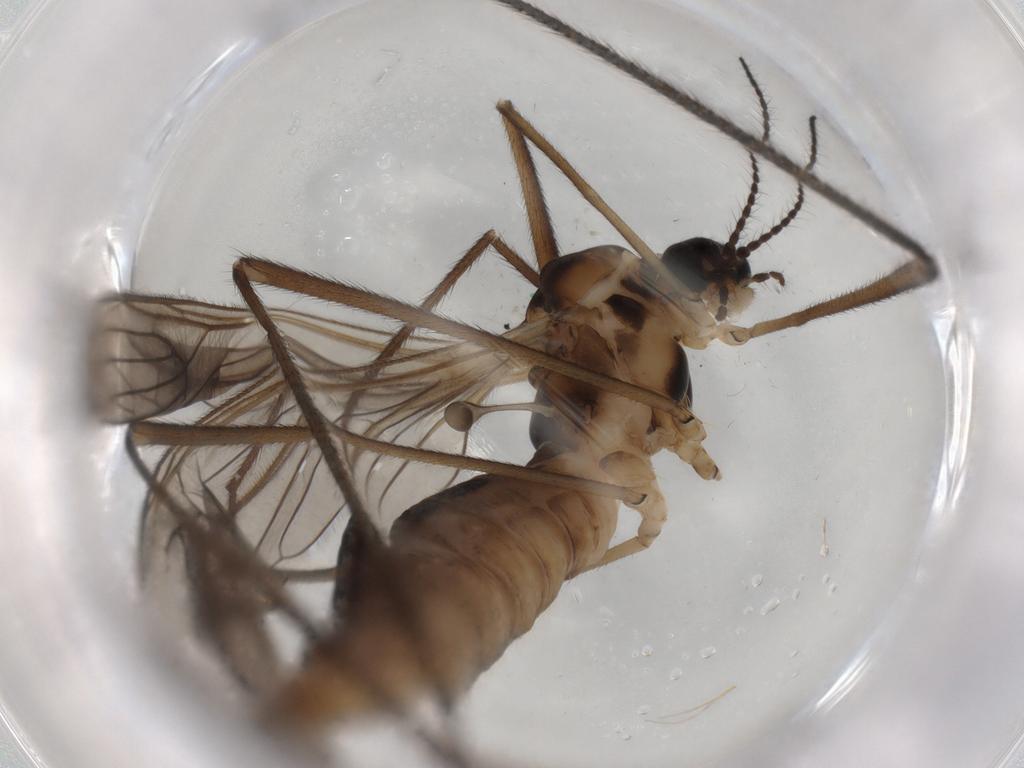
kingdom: Animalia
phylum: Arthropoda
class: Insecta
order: Diptera
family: Limoniidae
